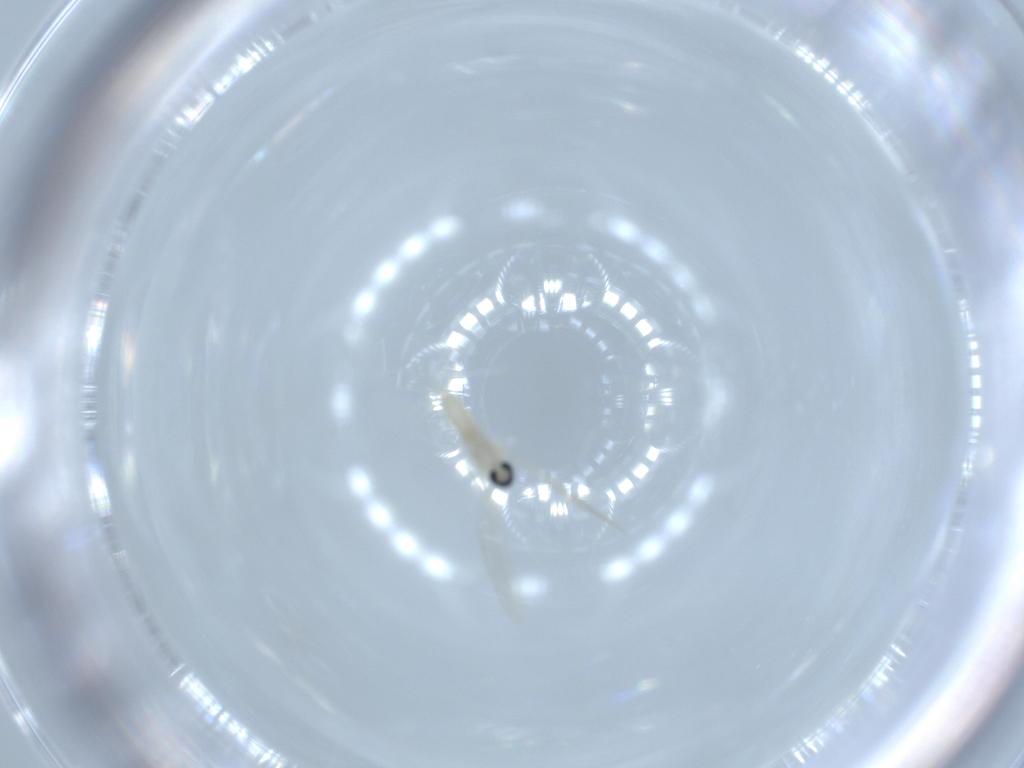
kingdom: Animalia
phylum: Arthropoda
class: Insecta
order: Diptera
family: Cecidomyiidae
